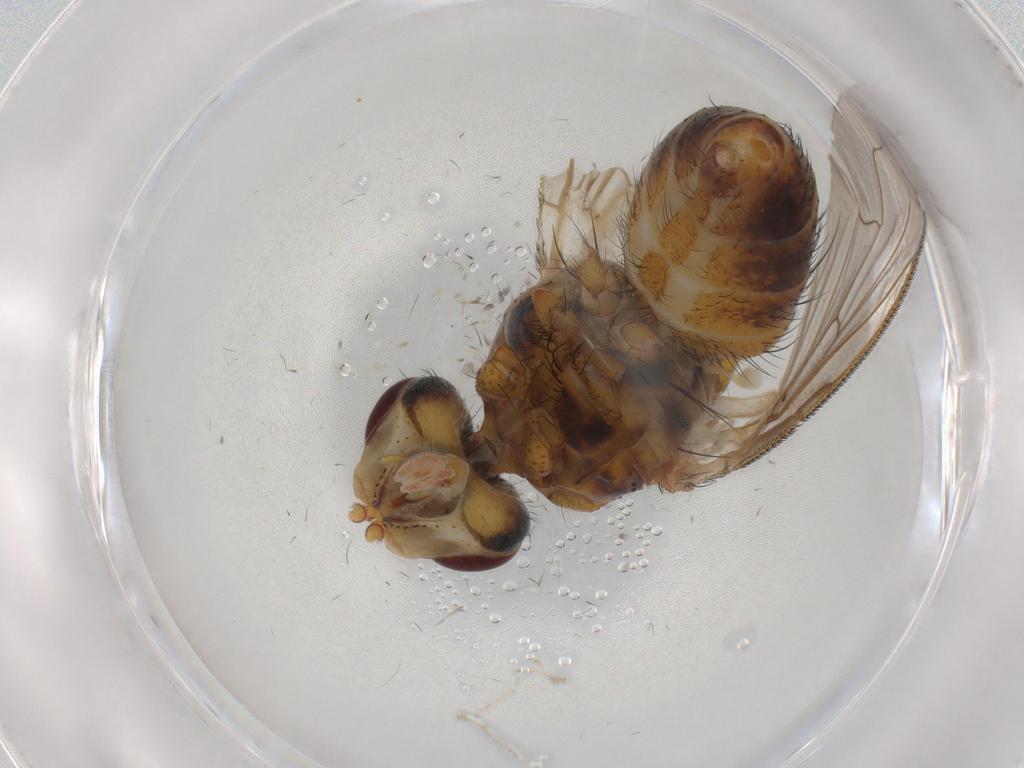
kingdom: Animalia
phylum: Arthropoda
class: Insecta
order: Diptera
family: Tachinidae
